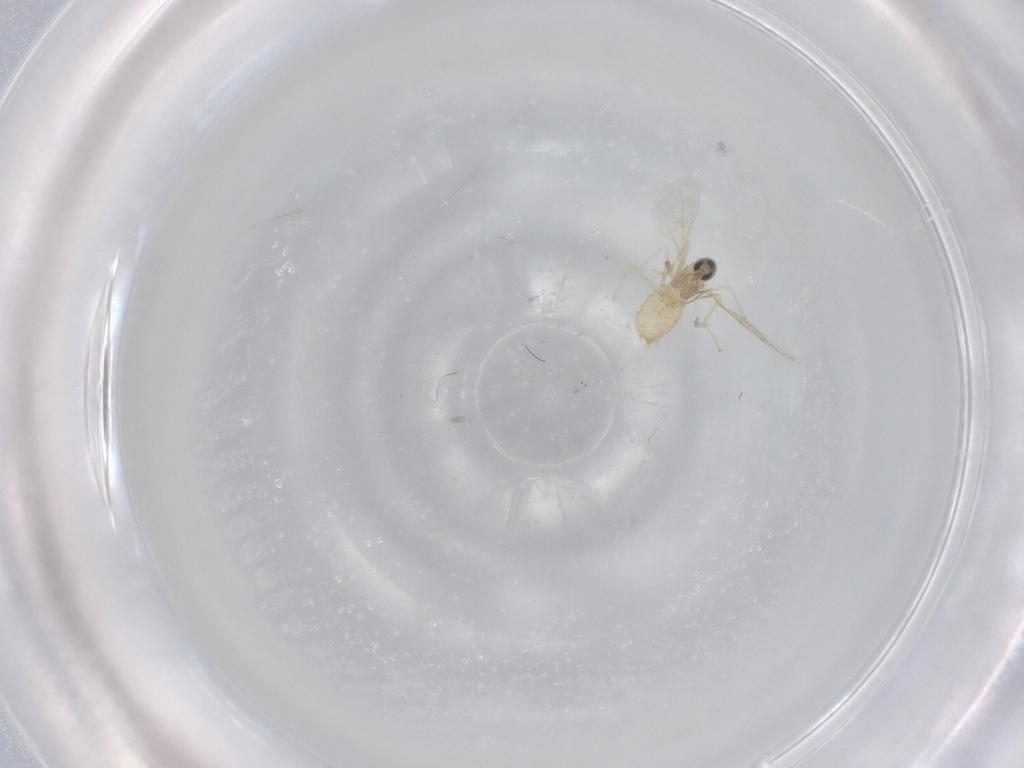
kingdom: Animalia
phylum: Arthropoda
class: Insecta
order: Diptera
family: Cecidomyiidae
